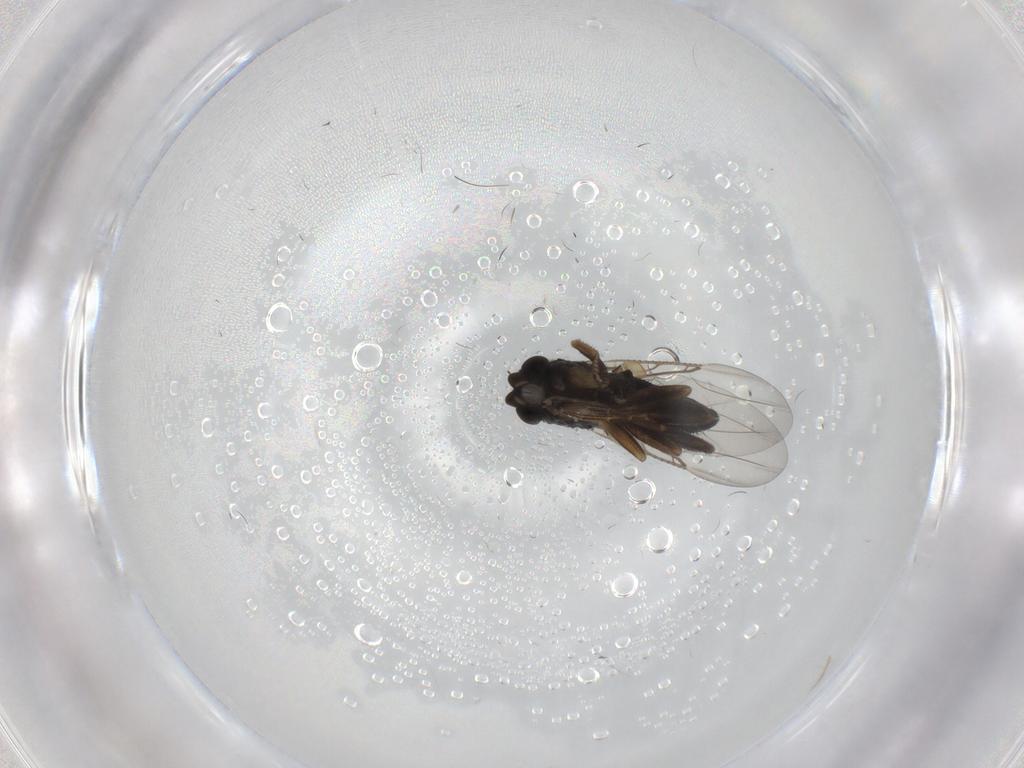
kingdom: Animalia
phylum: Arthropoda
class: Insecta
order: Diptera
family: Phoridae
